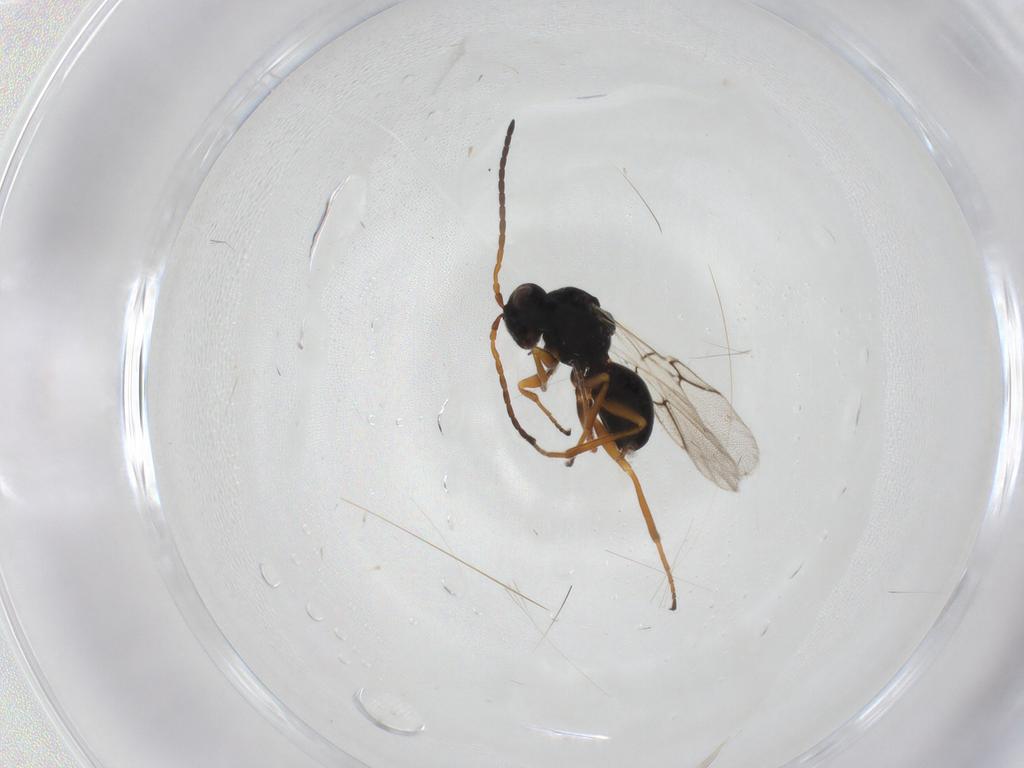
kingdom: Animalia
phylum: Arthropoda
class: Insecta
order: Hymenoptera
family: Cynipidae
